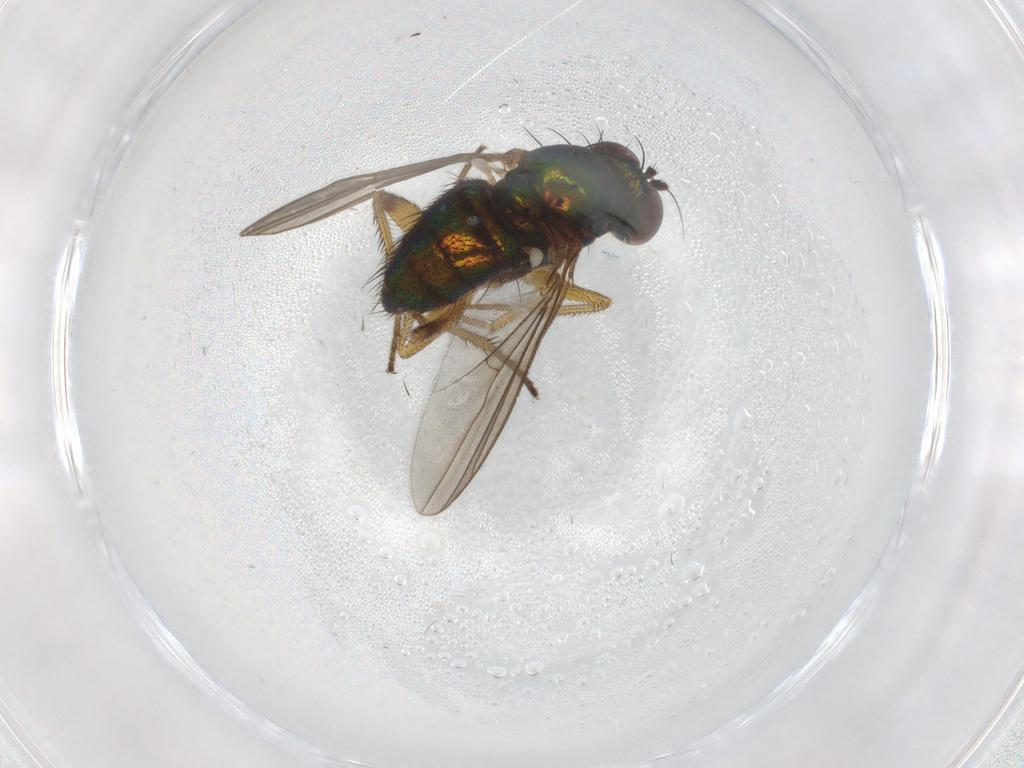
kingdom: Animalia
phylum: Arthropoda
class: Insecta
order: Diptera
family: Dolichopodidae
